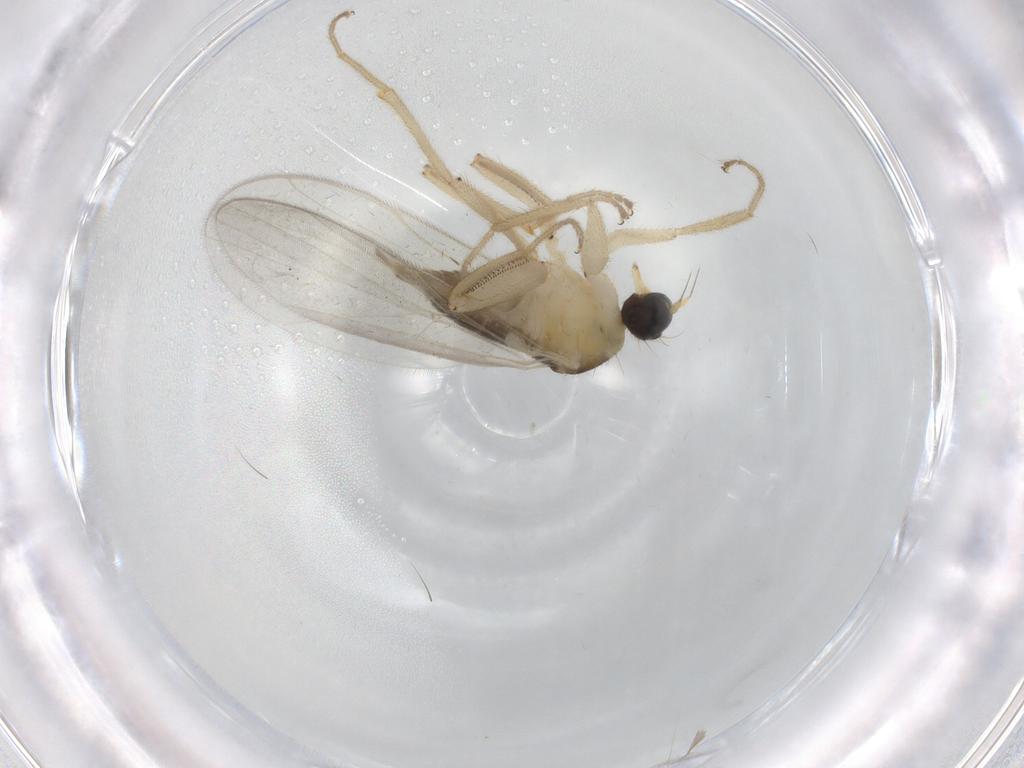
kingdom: Animalia
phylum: Arthropoda
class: Insecta
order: Diptera
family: Hybotidae
